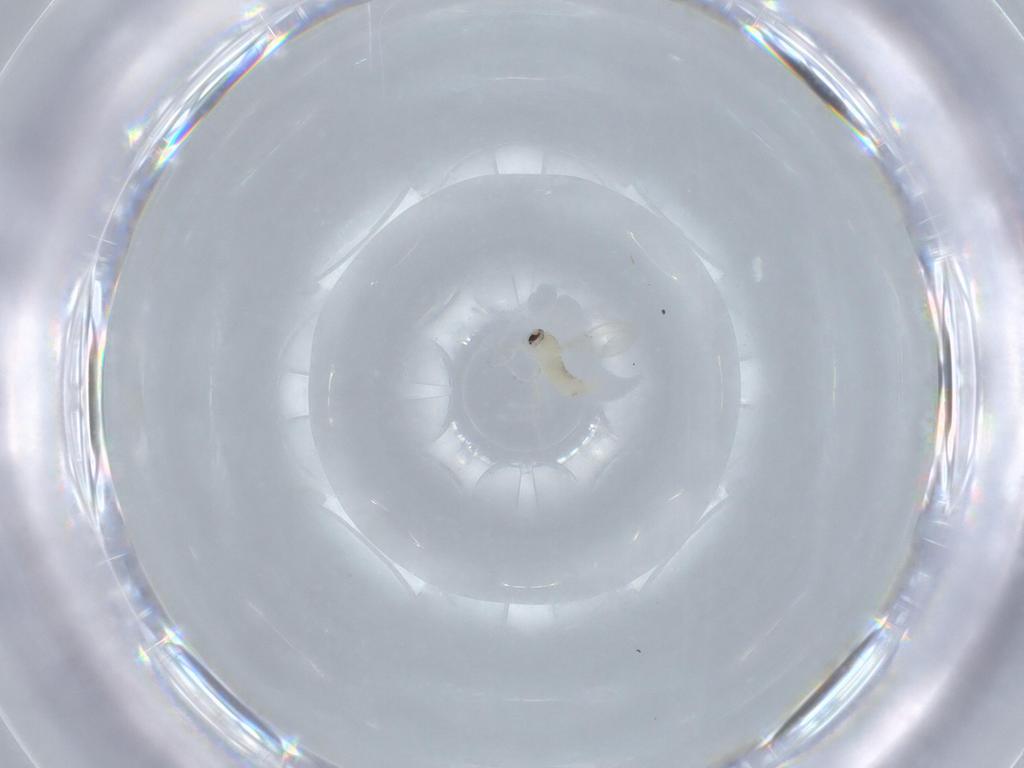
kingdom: Animalia
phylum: Arthropoda
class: Insecta
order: Diptera
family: Cecidomyiidae
